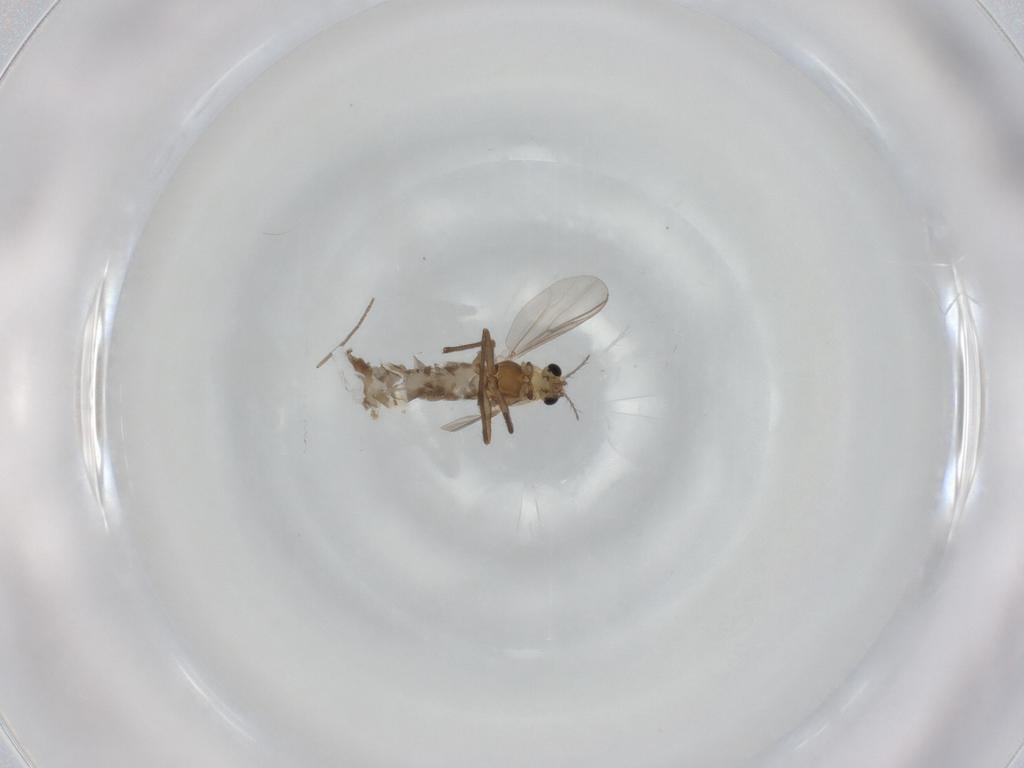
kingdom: Animalia
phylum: Arthropoda
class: Insecta
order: Diptera
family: Chironomidae
